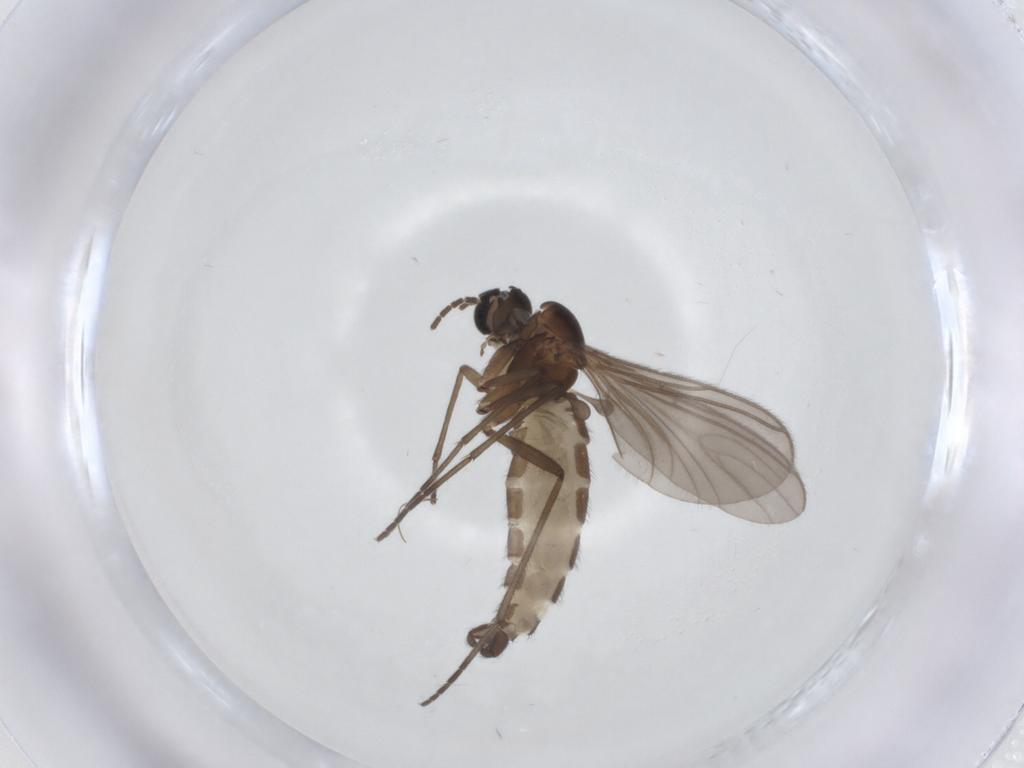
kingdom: Animalia
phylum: Arthropoda
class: Insecta
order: Diptera
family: Sciaridae
